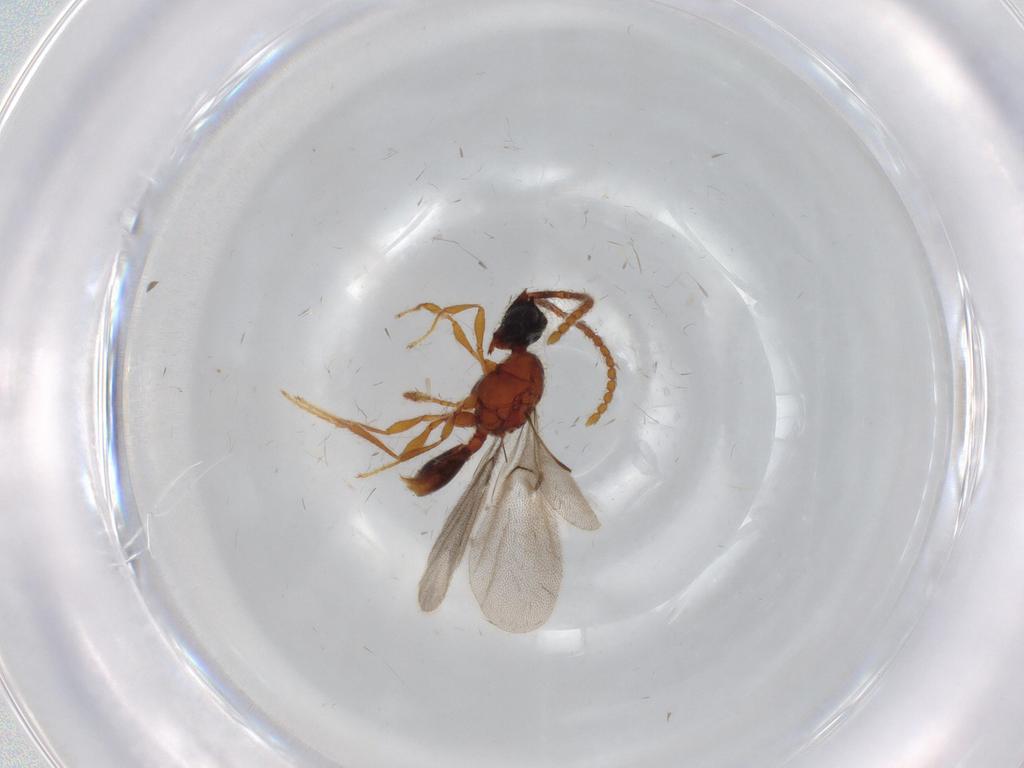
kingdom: Animalia
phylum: Arthropoda
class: Insecta
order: Hymenoptera
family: Diapriidae
